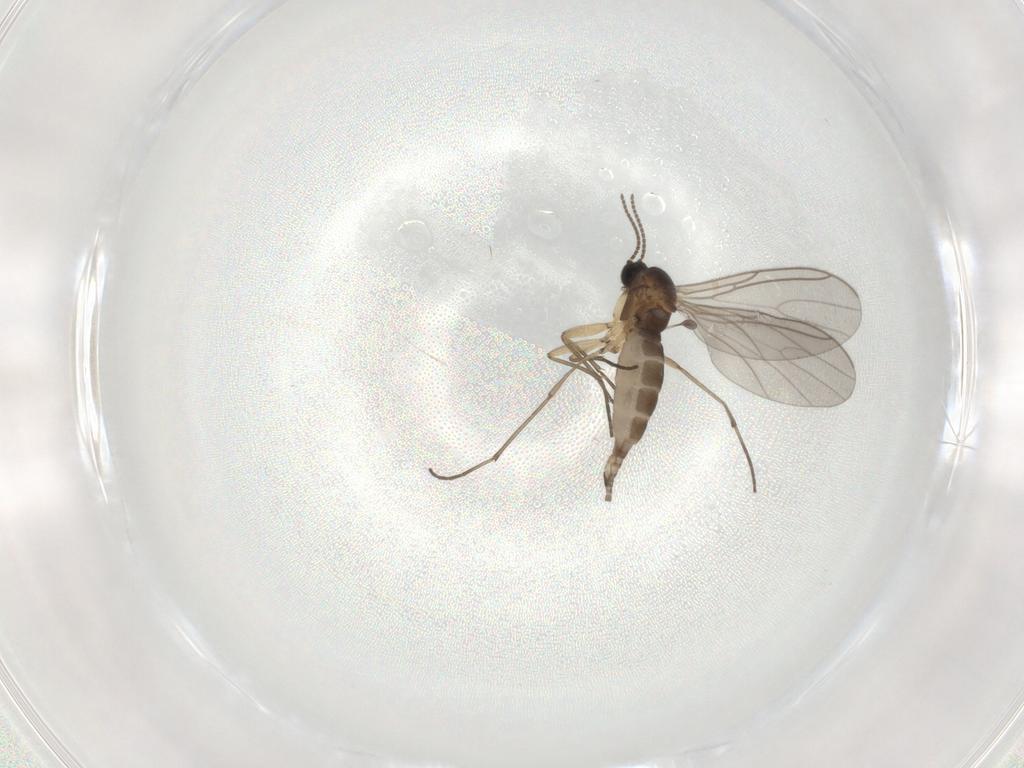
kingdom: Animalia
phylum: Arthropoda
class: Insecta
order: Diptera
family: Sciaridae
